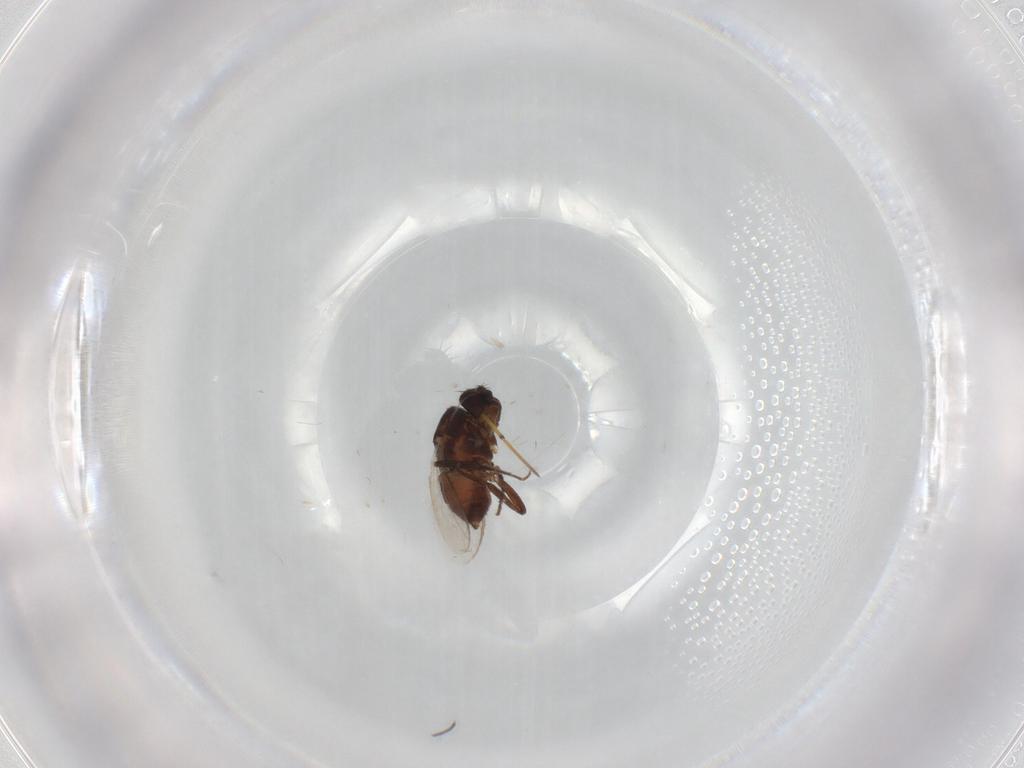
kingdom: Animalia
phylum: Arthropoda
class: Insecta
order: Diptera
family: Sphaeroceridae
